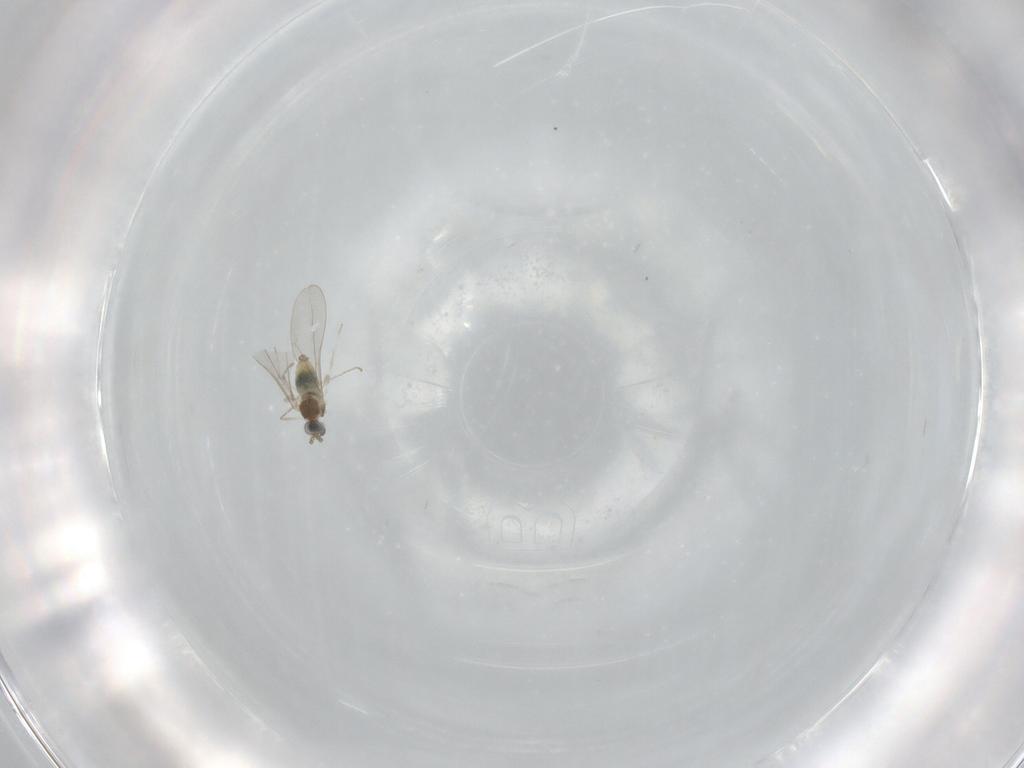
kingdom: Animalia
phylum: Arthropoda
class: Insecta
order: Diptera
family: Cecidomyiidae
